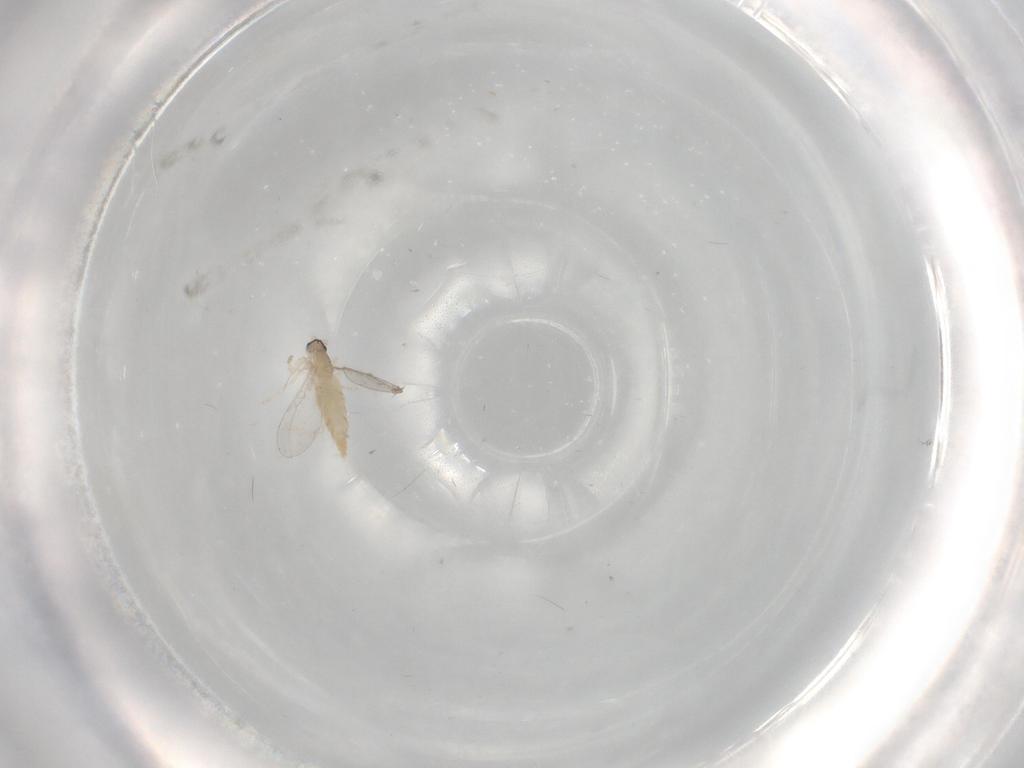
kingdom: Animalia
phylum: Arthropoda
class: Insecta
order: Diptera
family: Cecidomyiidae
